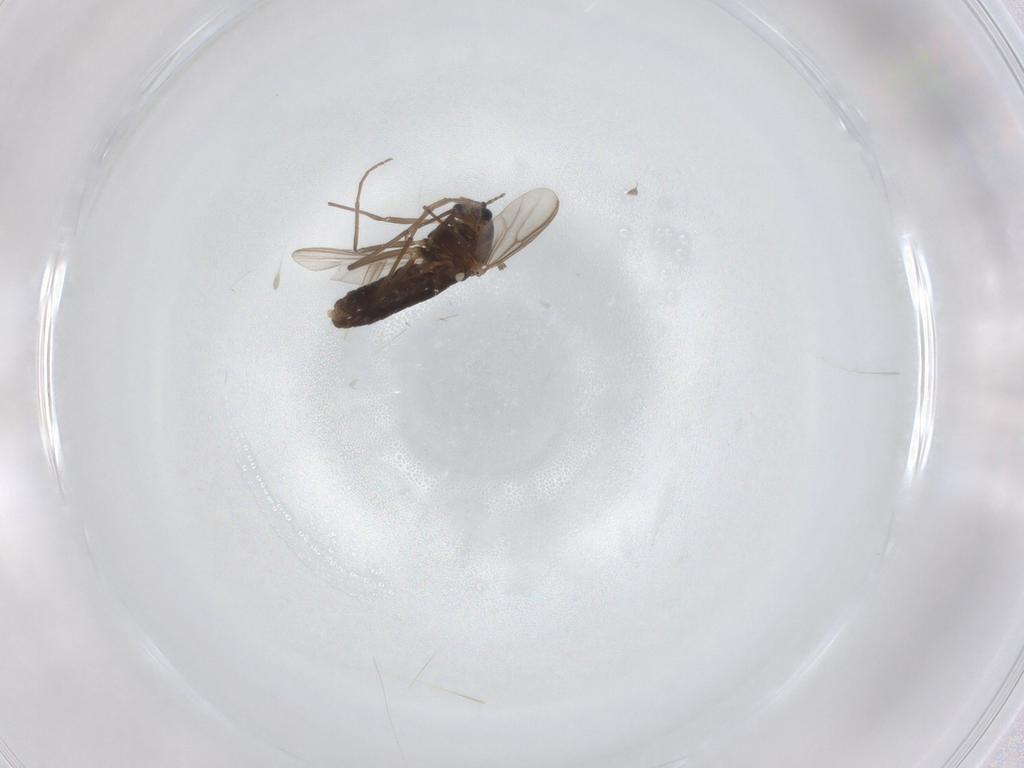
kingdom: Animalia
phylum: Arthropoda
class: Insecta
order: Diptera
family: Chironomidae
